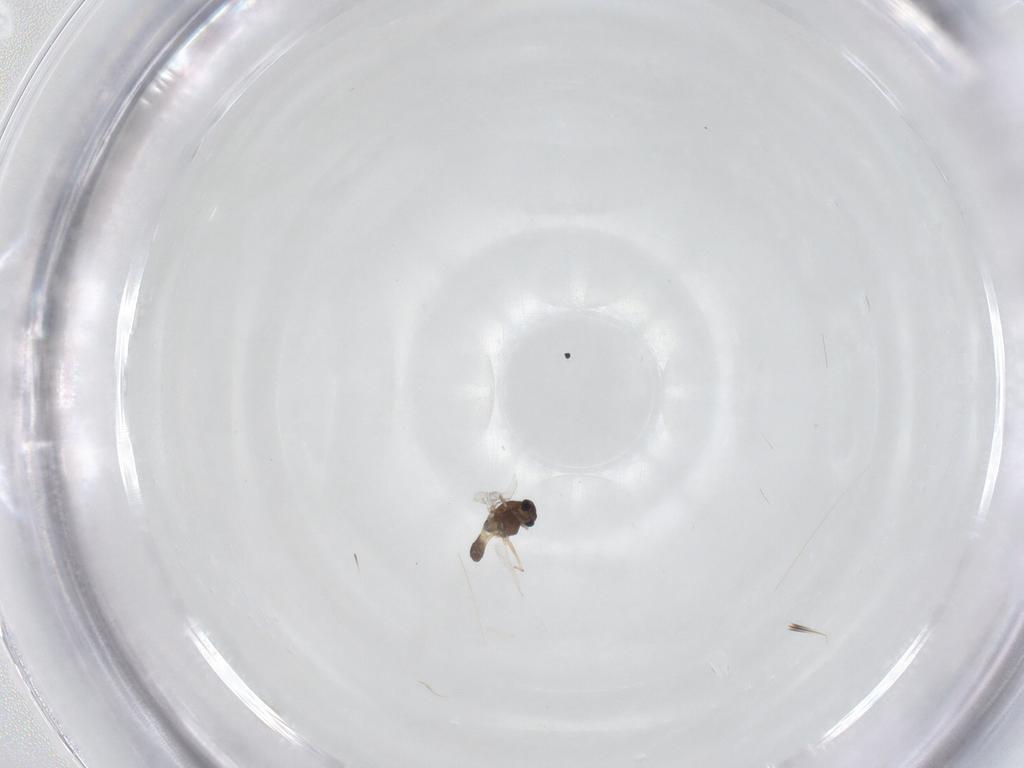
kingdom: Animalia
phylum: Arthropoda
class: Insecta
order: Diptera
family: Chironomidae
